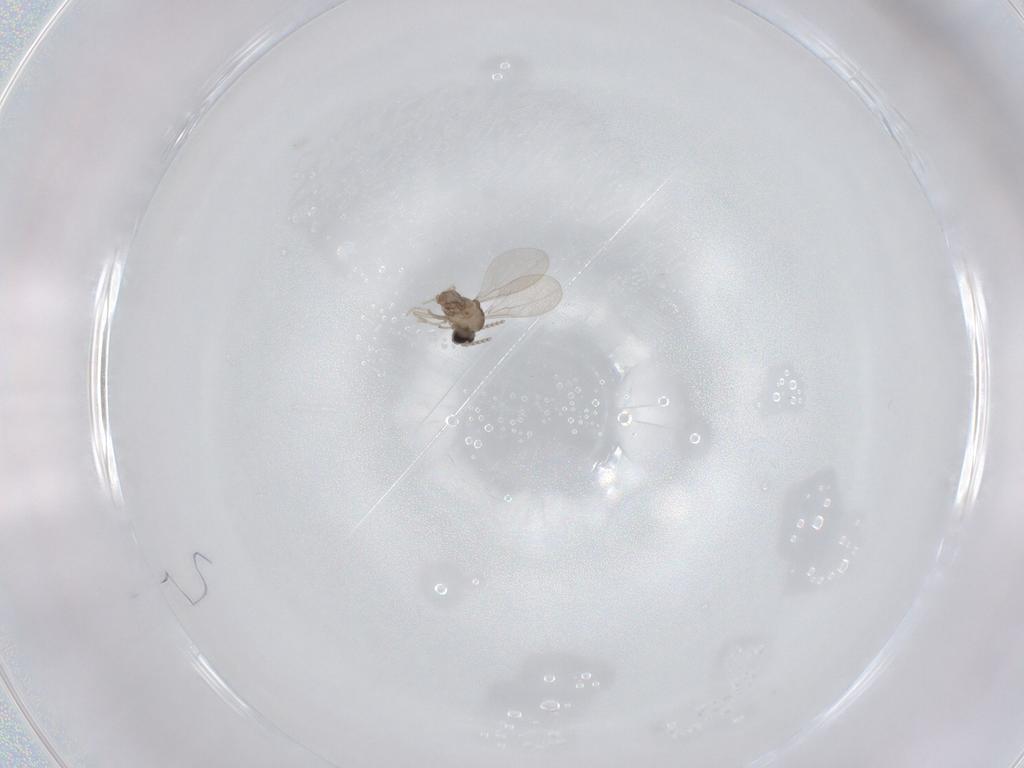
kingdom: Animalia
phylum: Arthropoda
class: Insecta
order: Diptera
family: Cecidomyiidae
